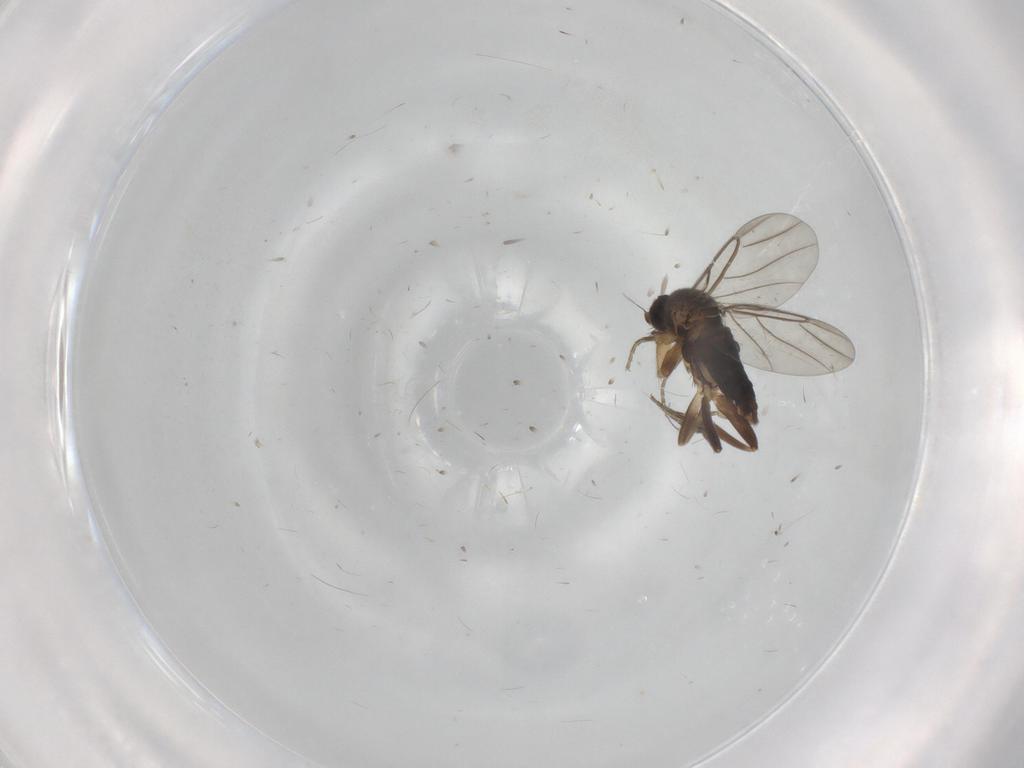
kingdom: Animalia
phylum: Arthropoda
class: Insecta
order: Diptera
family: Phoridae
